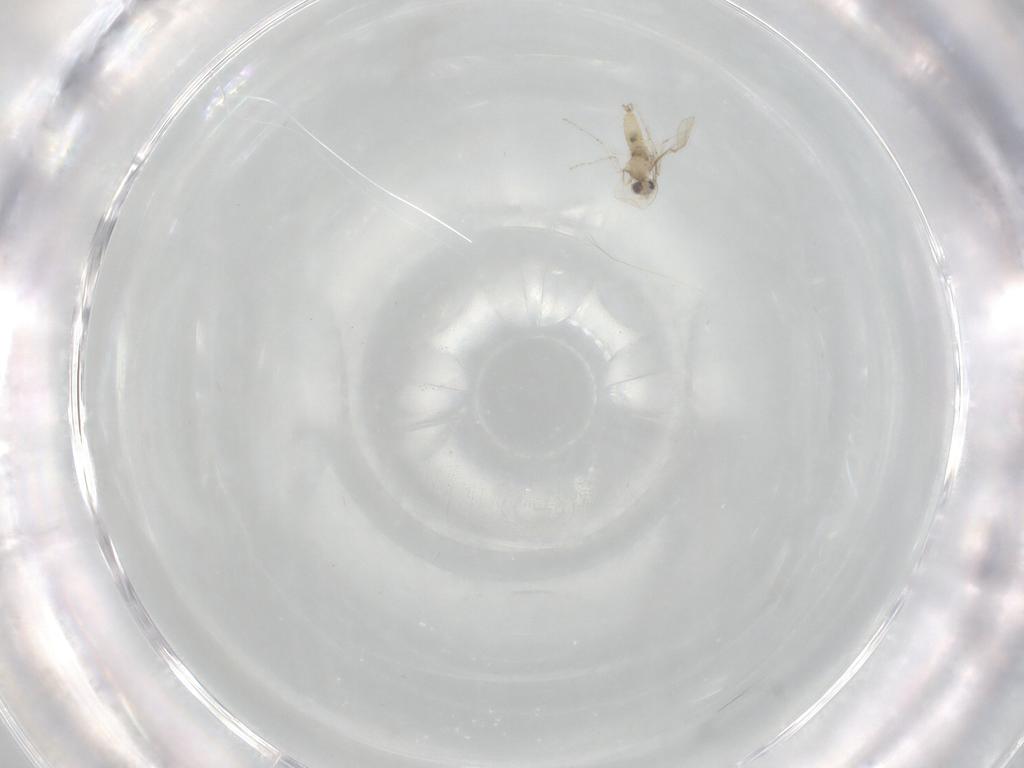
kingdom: Animalia
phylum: Arthropoda
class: Insecta
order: Diptera
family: Cecidomyiidae
